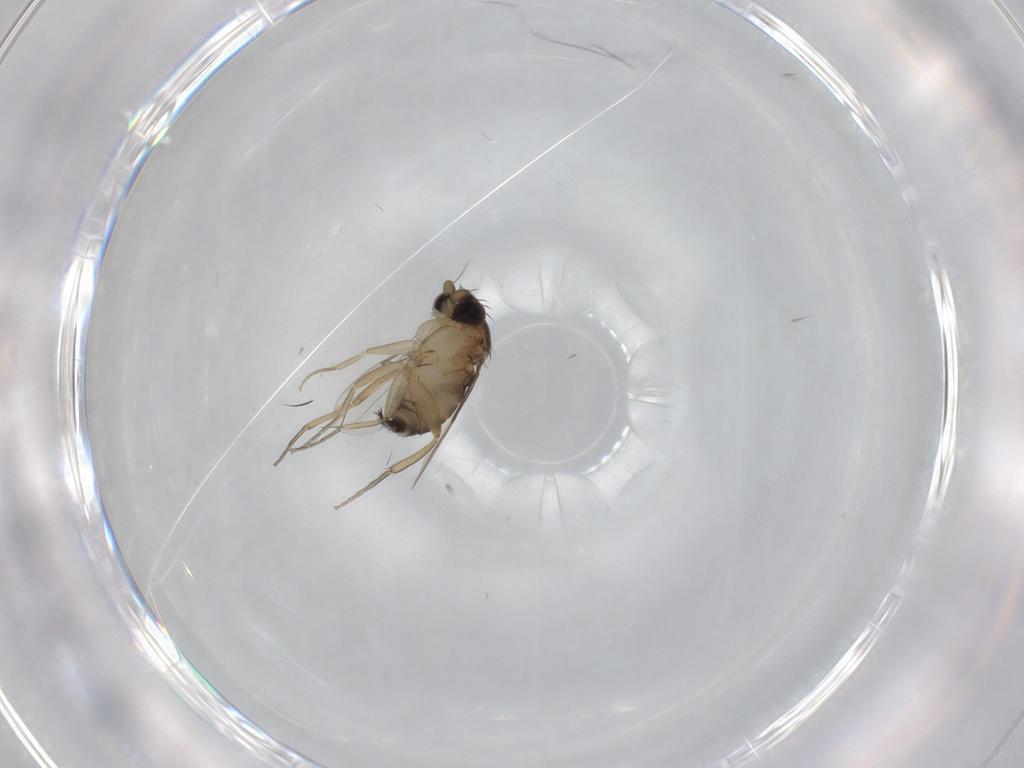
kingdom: Animalia
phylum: Arthropoda
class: Insecta
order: Diptera
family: Phoridae
